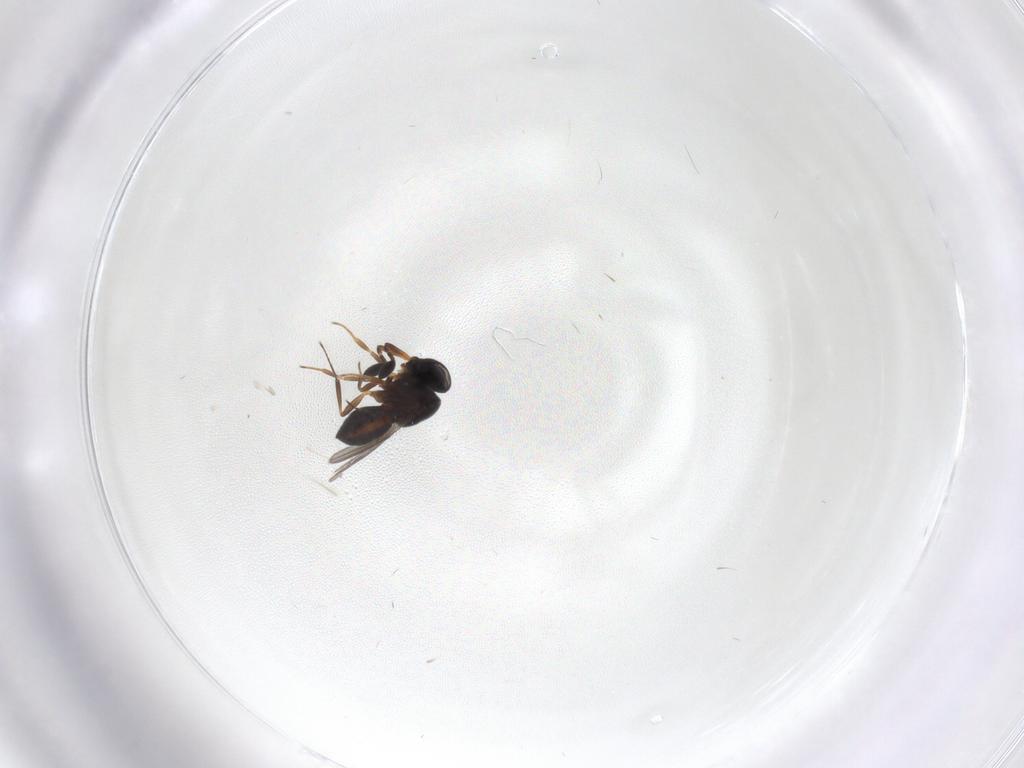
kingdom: Animalia
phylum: Arthropoda
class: Insecta
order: Hymenoptera
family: Scelionidae
